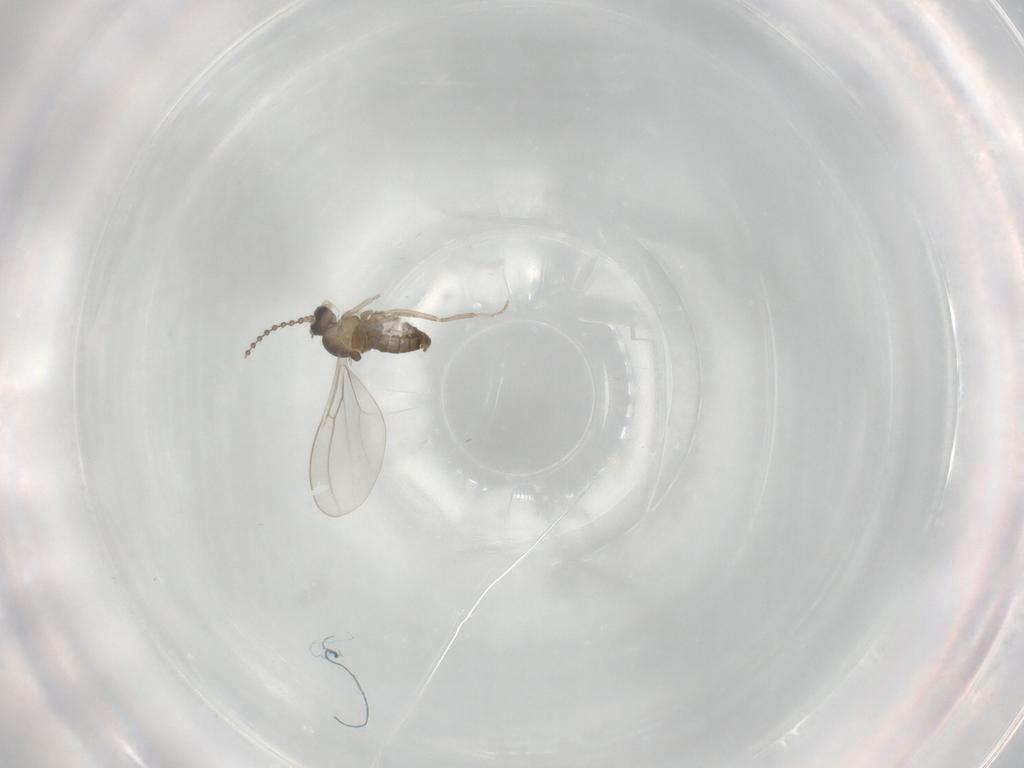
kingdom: Animalia
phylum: Arthropoda
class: Insecta
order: Diptera
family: Cecidomyiidae
